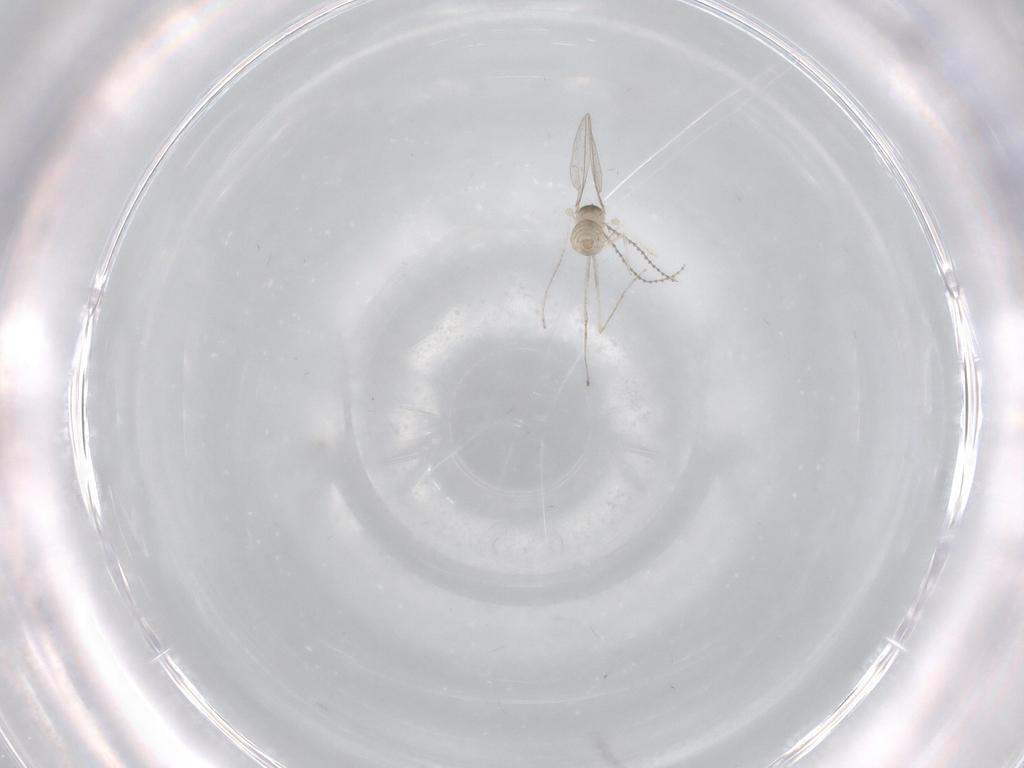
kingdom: Animalia
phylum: Arthropoda
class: Insecta
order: Diptera
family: Cecidomyiidae
